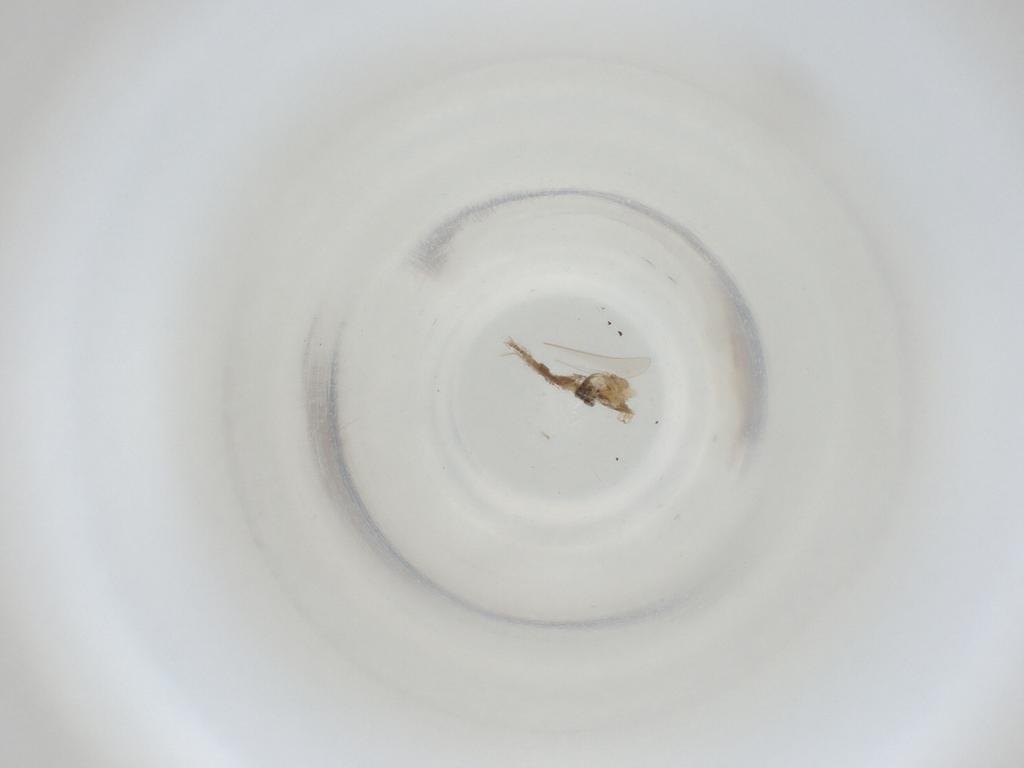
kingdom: Animalia
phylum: Arthropoda
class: Insecta
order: Diptera
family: Cecidomyiidae
